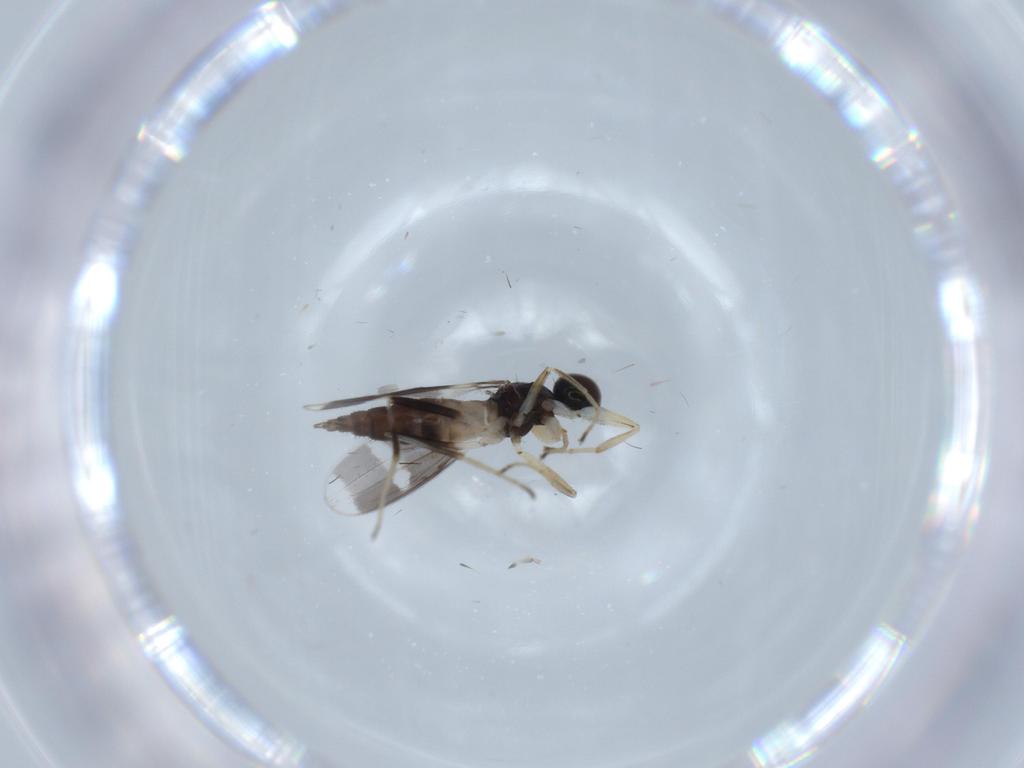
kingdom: Animalia
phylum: Arthropoda
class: Insecta
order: Diptera
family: Hybotidae
